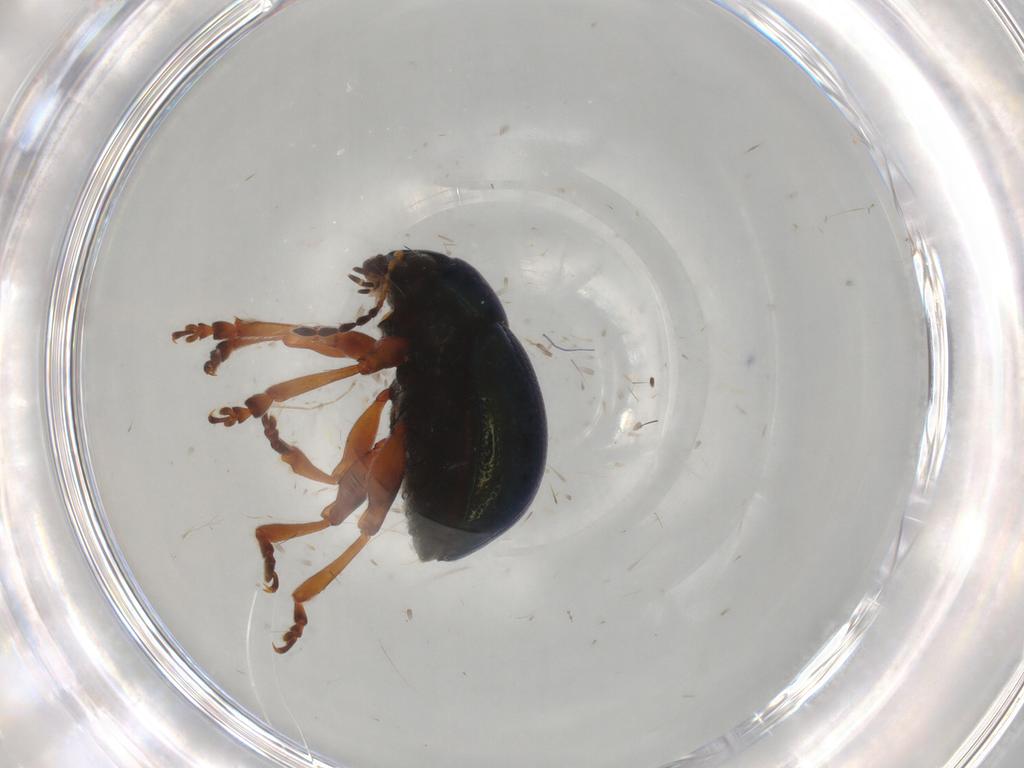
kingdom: Animalia
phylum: Arthropoda
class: Insecta
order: Coleoptera
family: Chrysomelidae
